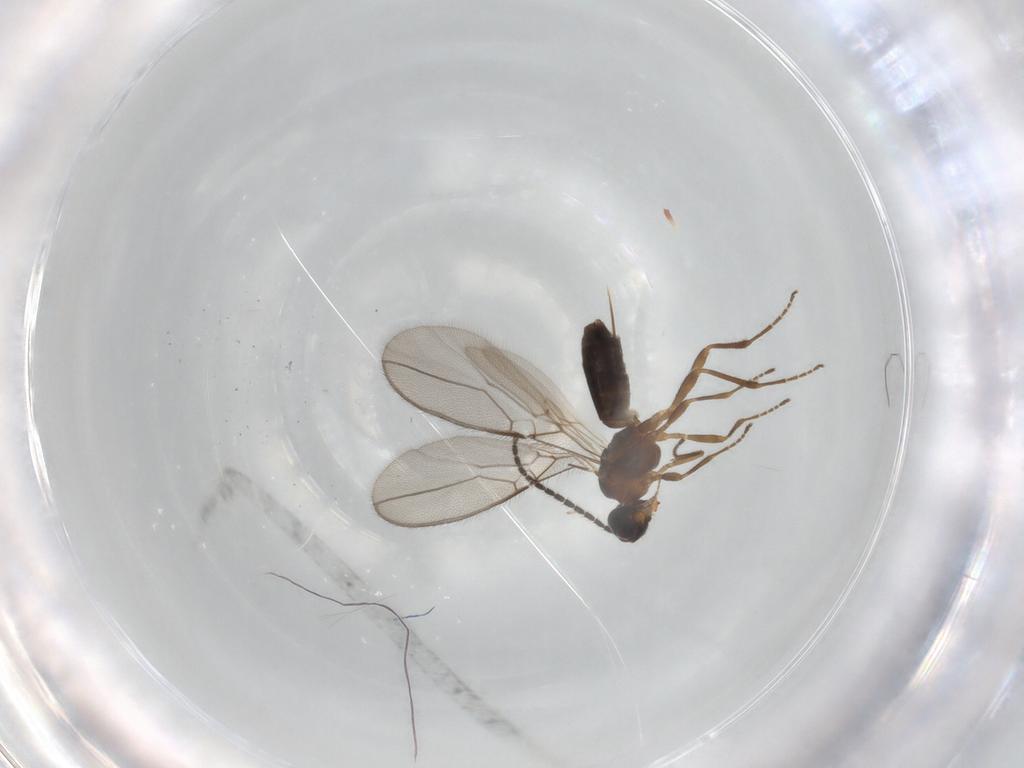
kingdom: Animalia
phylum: Arthropoda
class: Insecta
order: Hymenoptera
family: Braconidae
